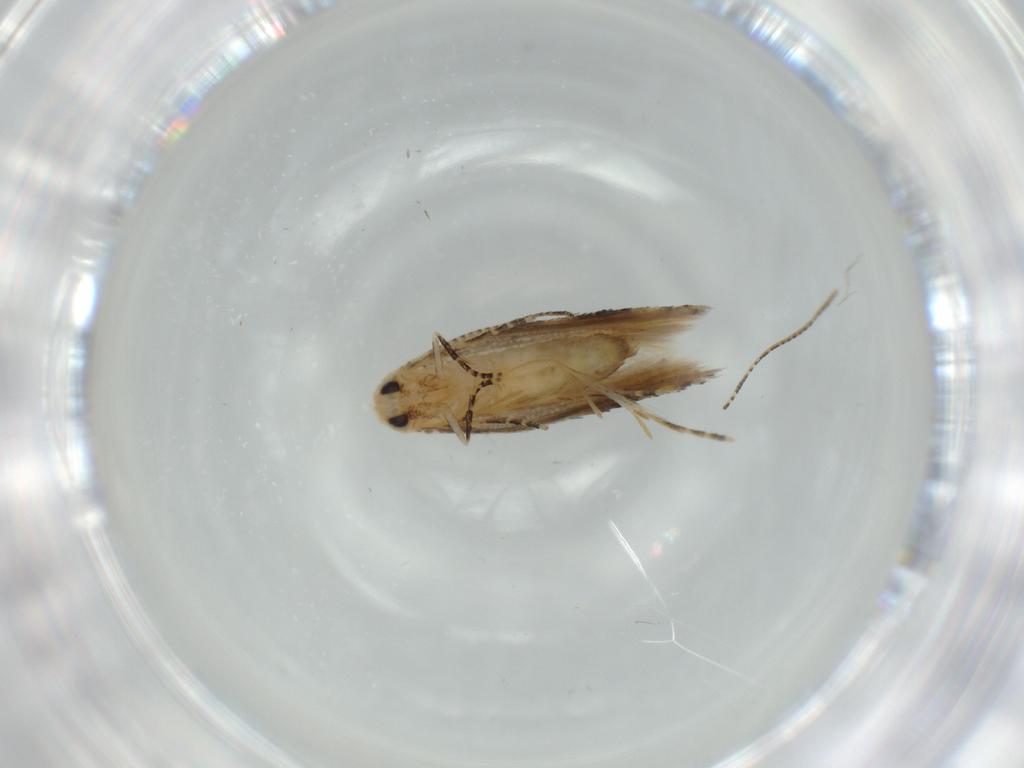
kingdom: Animalia
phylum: Arthropoda
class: Insecta
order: Lepidoptera
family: Bucculatricidae
